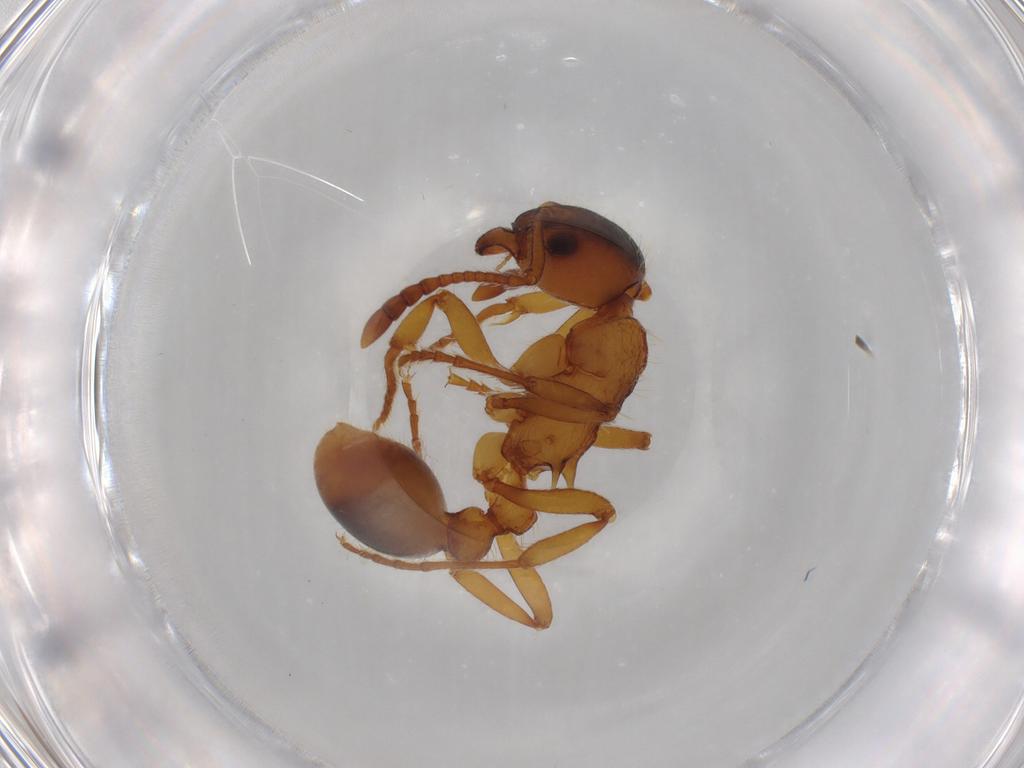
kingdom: Animalia
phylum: Arthropoda
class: Insecta
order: Hymenoptera
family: Formicidae
